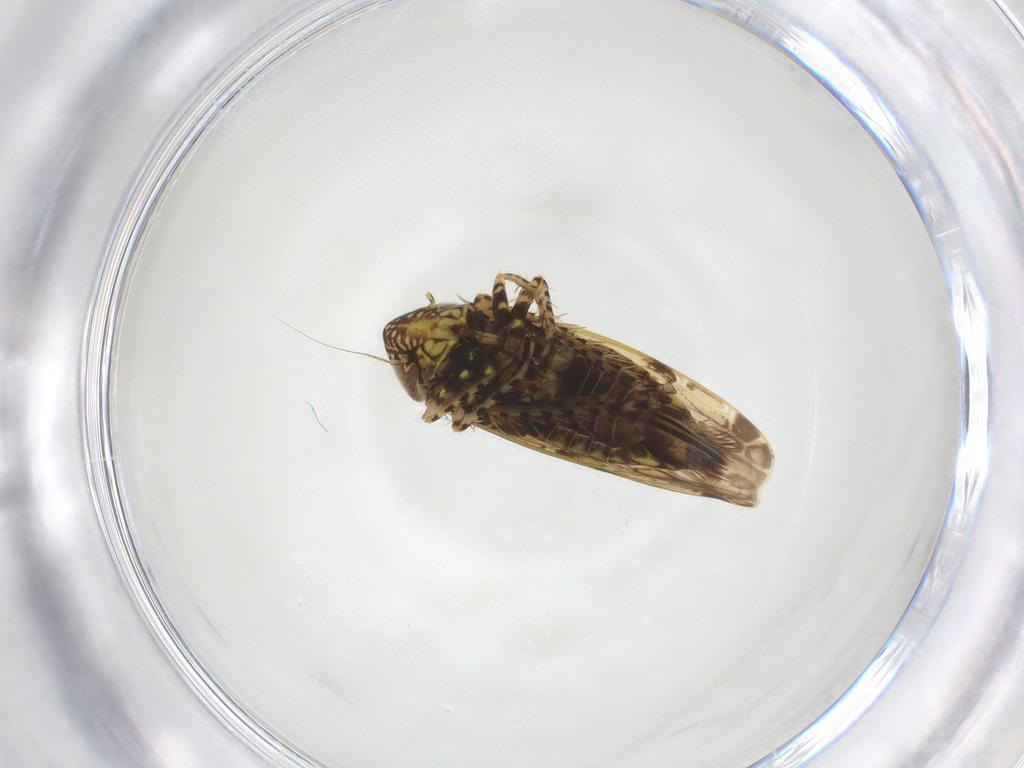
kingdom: Animalia
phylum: Arthropoda
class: Insecta
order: Hemiptera
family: Cicadellidae
